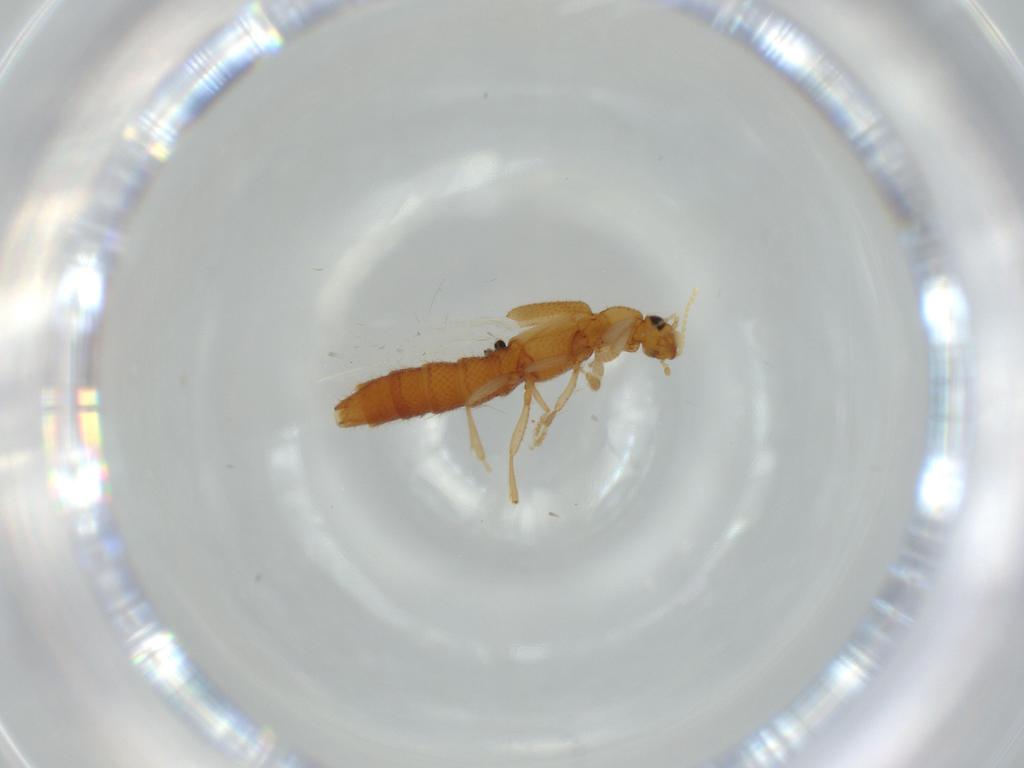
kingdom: Animalia
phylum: Arthropoda
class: Insecta
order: Coleoptera
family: Staphylinidae
